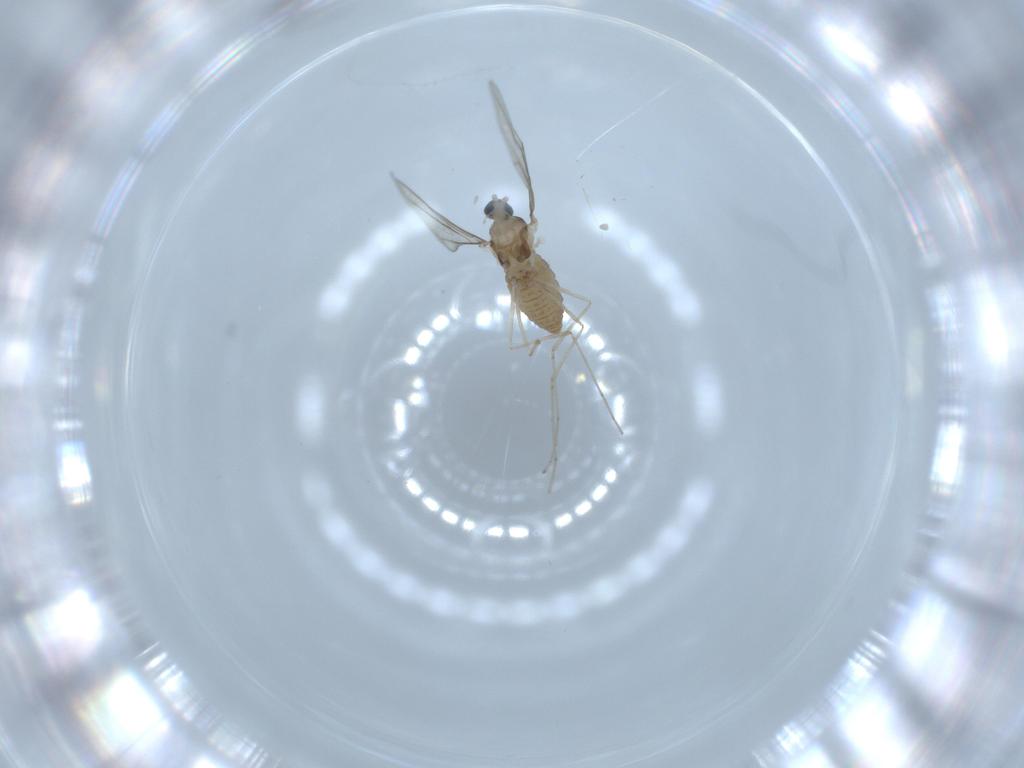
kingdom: Animalia
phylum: Arthropoda
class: Insecta
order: Diptera
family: Cecidomyiidae
